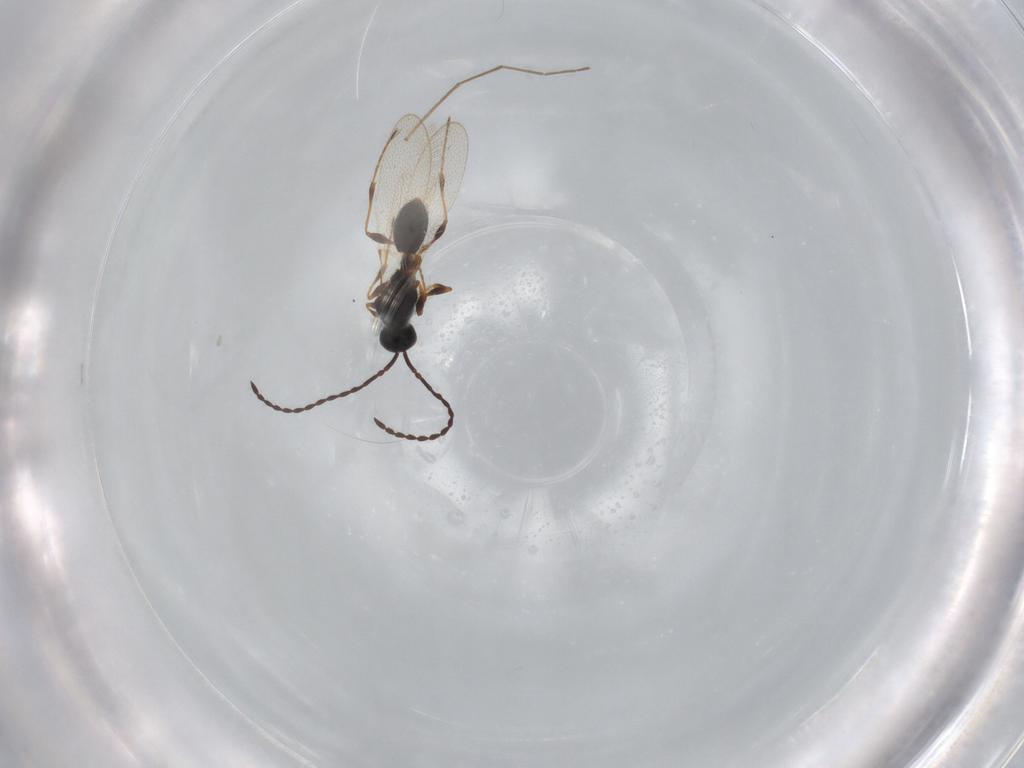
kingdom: Animalia
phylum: Arthropoda
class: Insecta
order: Hymenoptera
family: Diapriidae
